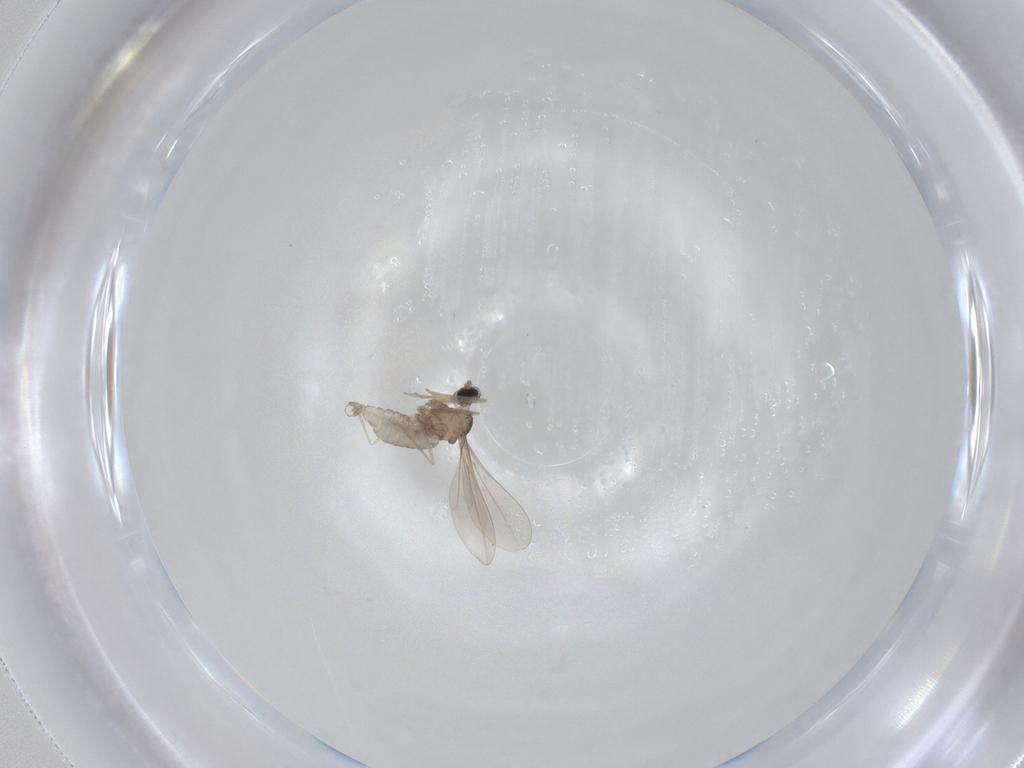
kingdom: Animalia
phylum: Arthropoda
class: Insecta
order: Diptera
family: Cecidomyiidae
